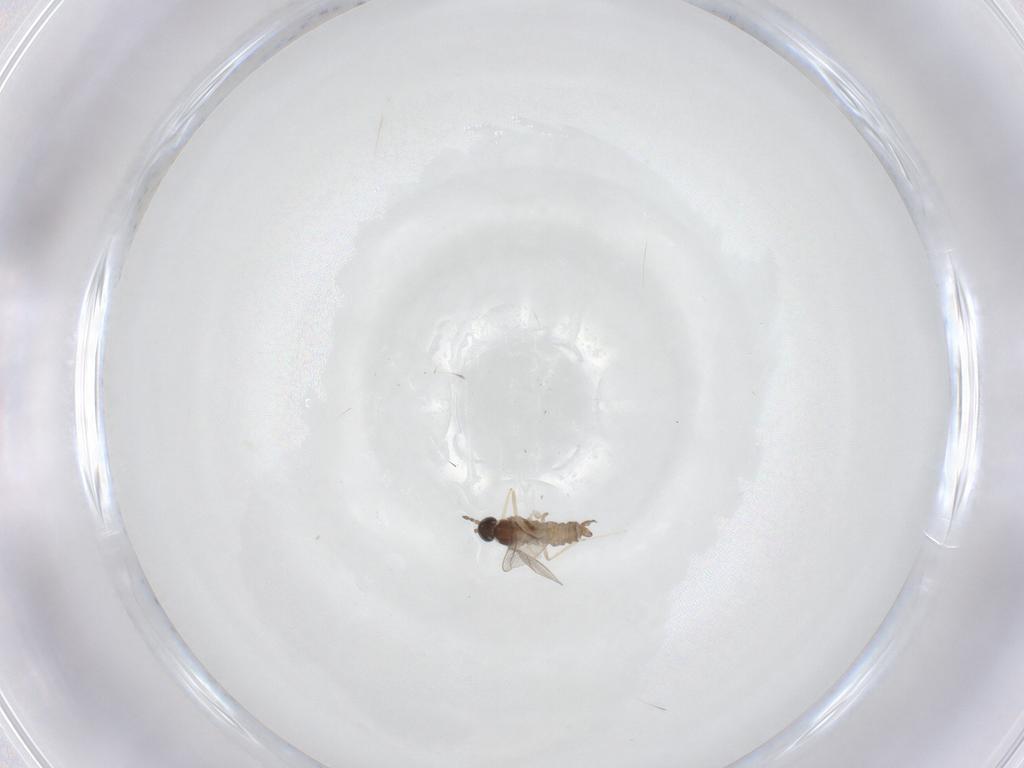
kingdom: Animalia
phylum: Arthropoda
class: Insecta
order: Diptera
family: Cecidomyiidae
